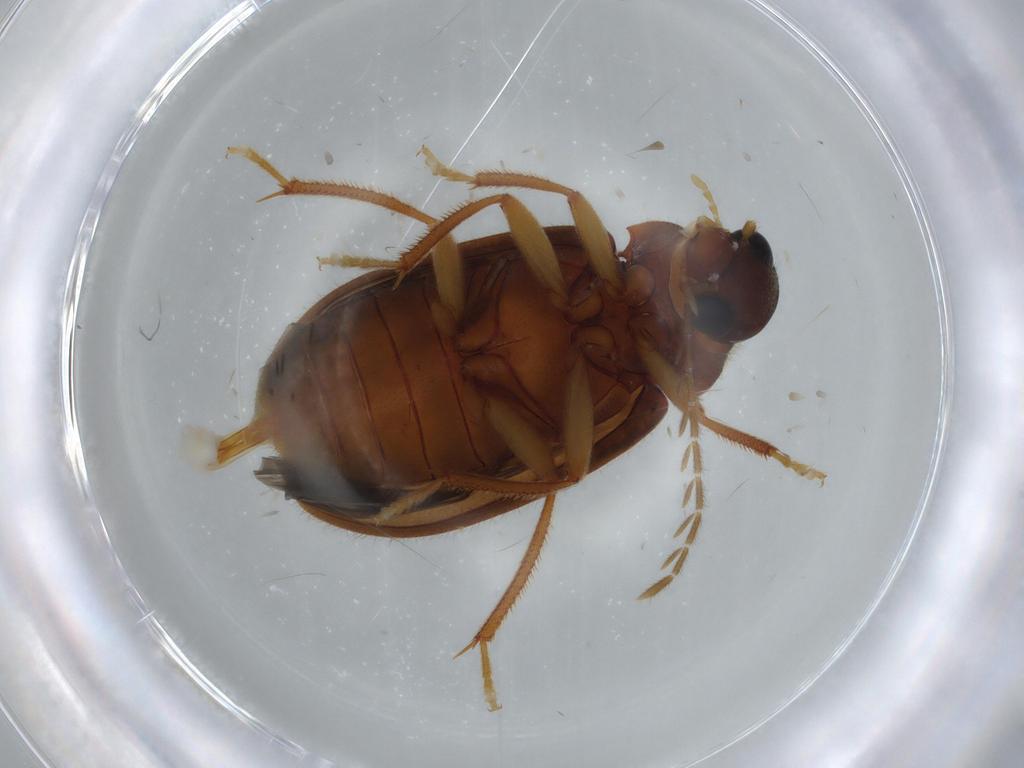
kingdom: Animalia
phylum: Arthropoda
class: Insecta
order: Coleoptera
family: Ptilodactylidae
